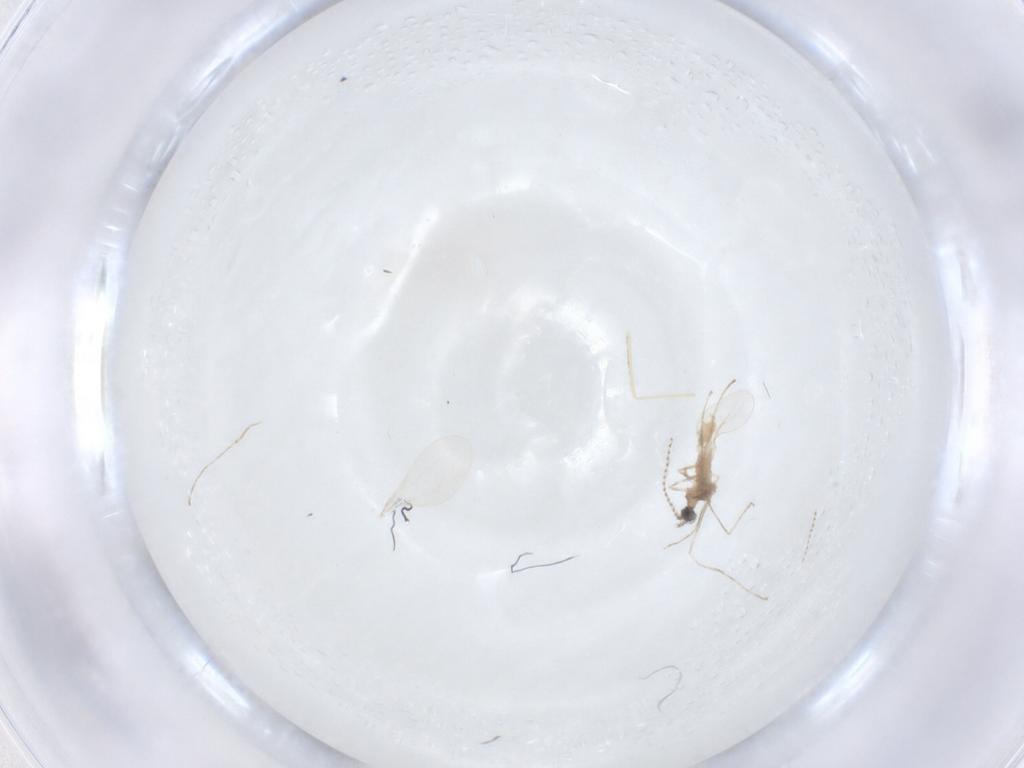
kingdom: Animalia
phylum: Arthropoda
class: Insecta
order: Diptera
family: Cecidomyiidae
